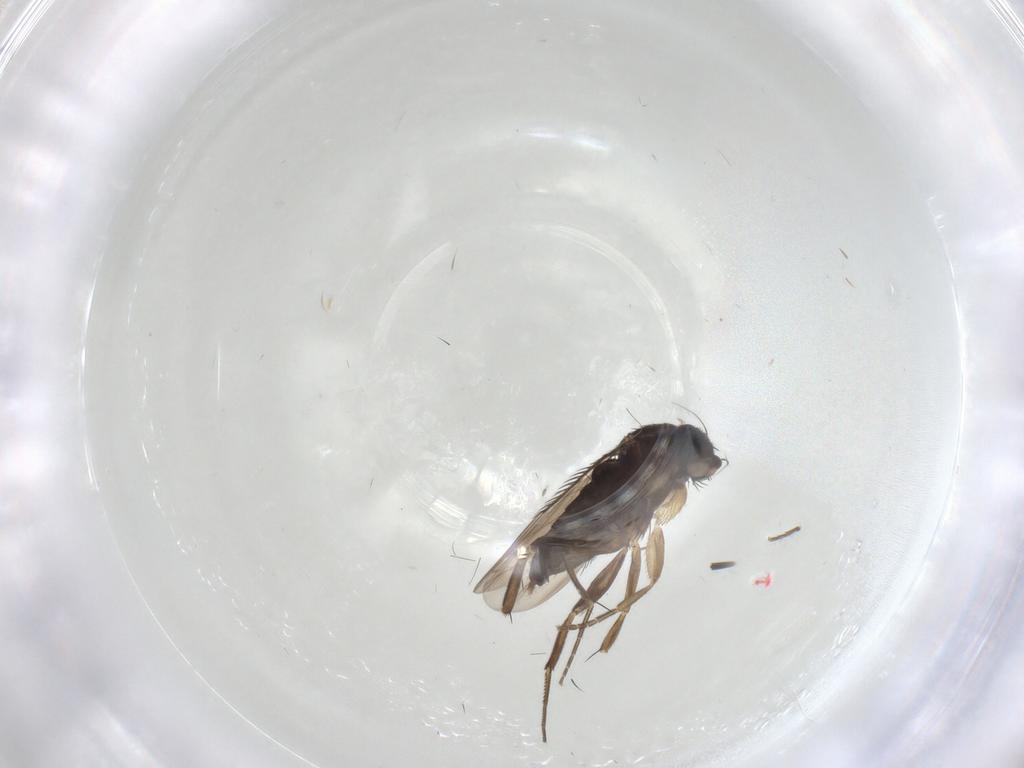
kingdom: Animalia
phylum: Arthropoda
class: Insecta
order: Diptera
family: Phoridae
